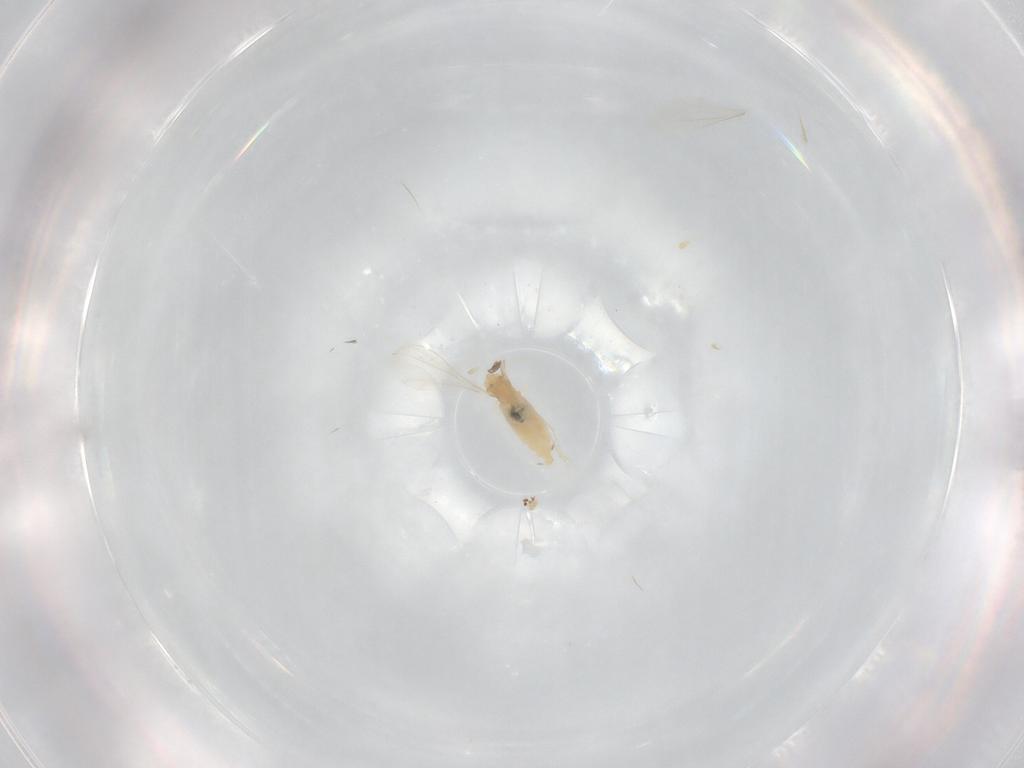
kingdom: Animalia
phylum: Arthropoda
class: Insecta
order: Diptera
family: Cecidomyiidae
